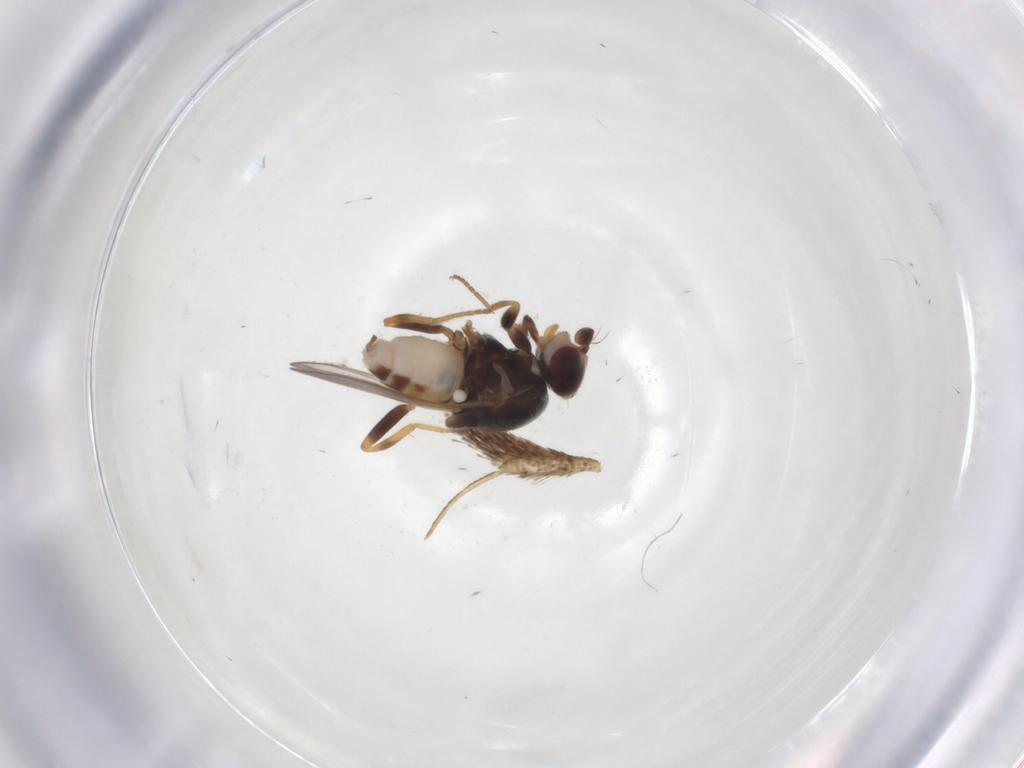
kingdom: Animalia
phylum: Arthropoda
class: Insecta
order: Diptera
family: Chloropidae
